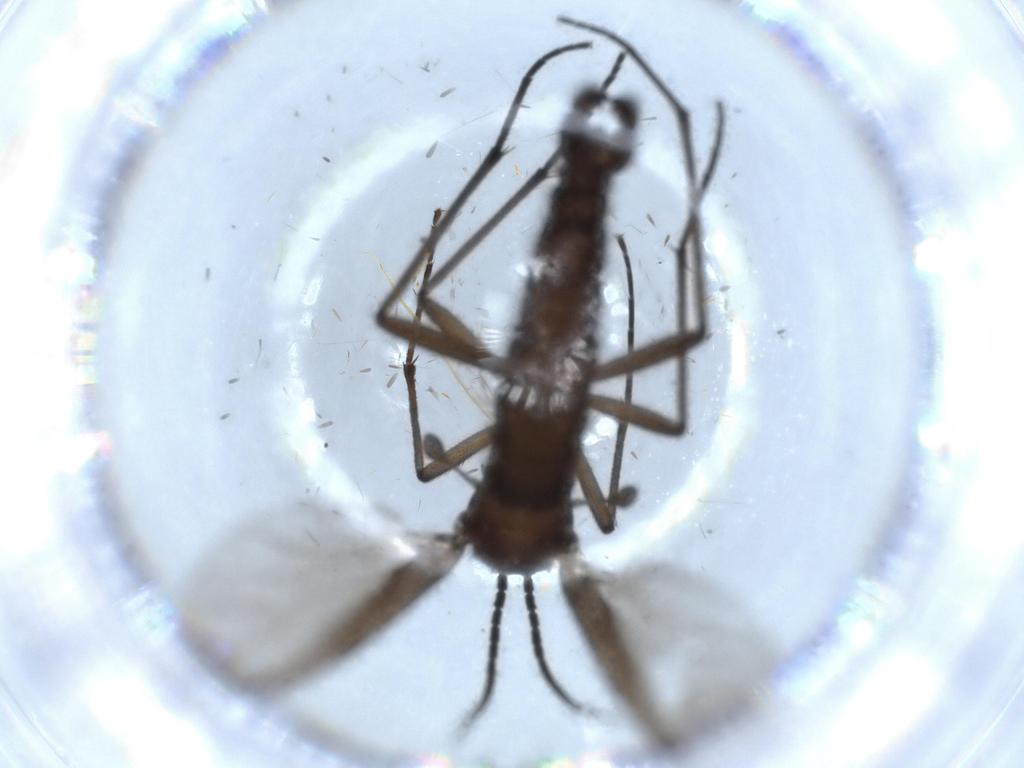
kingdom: Animalia
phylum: Arthropoda
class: Insecta
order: Diptera
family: Sciaridae
